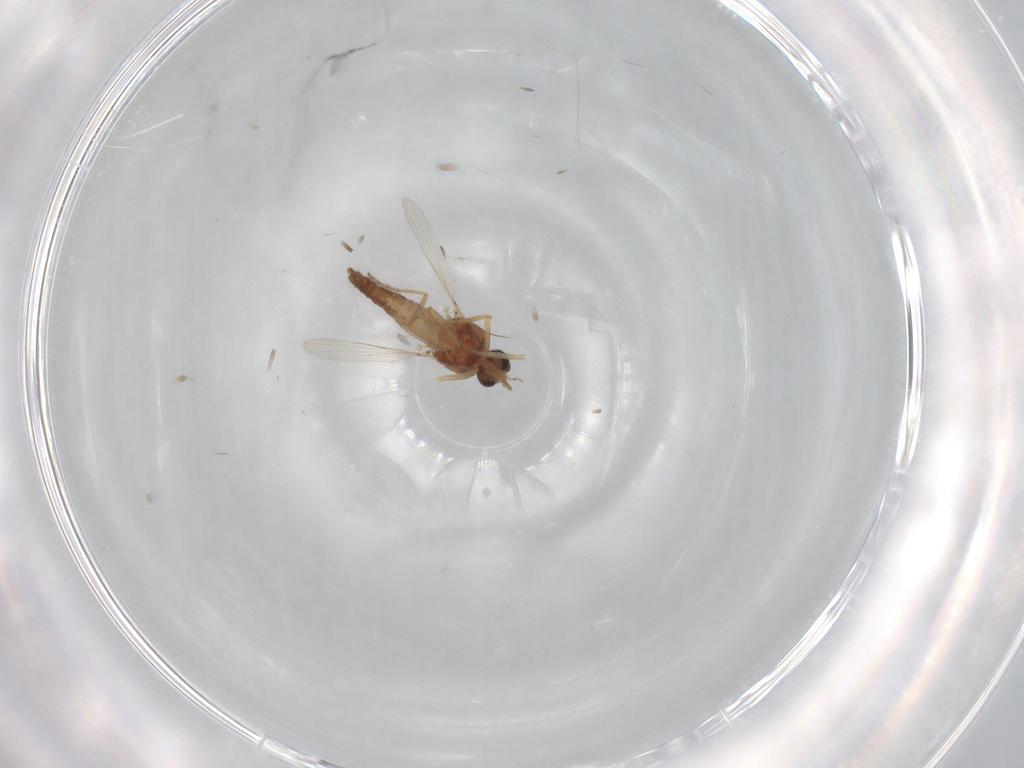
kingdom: Animalia
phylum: Arthropoda
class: Insecta
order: Diptera
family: Ceratopogonidae
